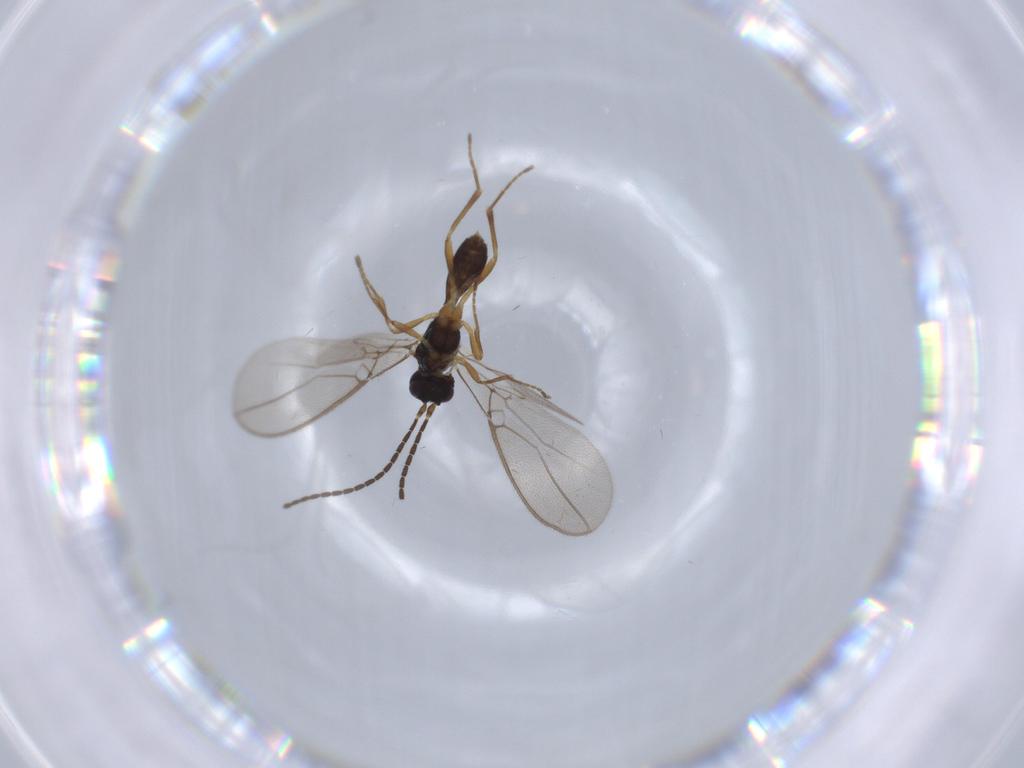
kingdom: Animalia
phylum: Arthropoda
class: Insecta
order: Hymenoptera
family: Braconidae
